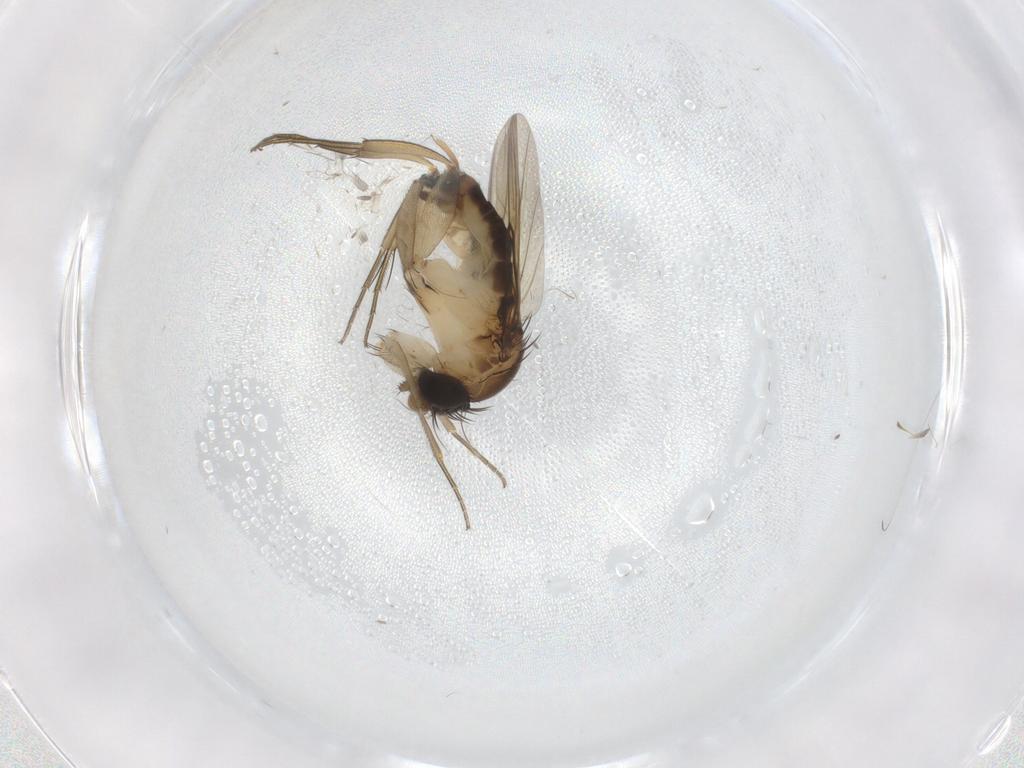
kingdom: Animalia
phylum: Arthropoda
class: Insecta
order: Diptera
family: Phoridae
